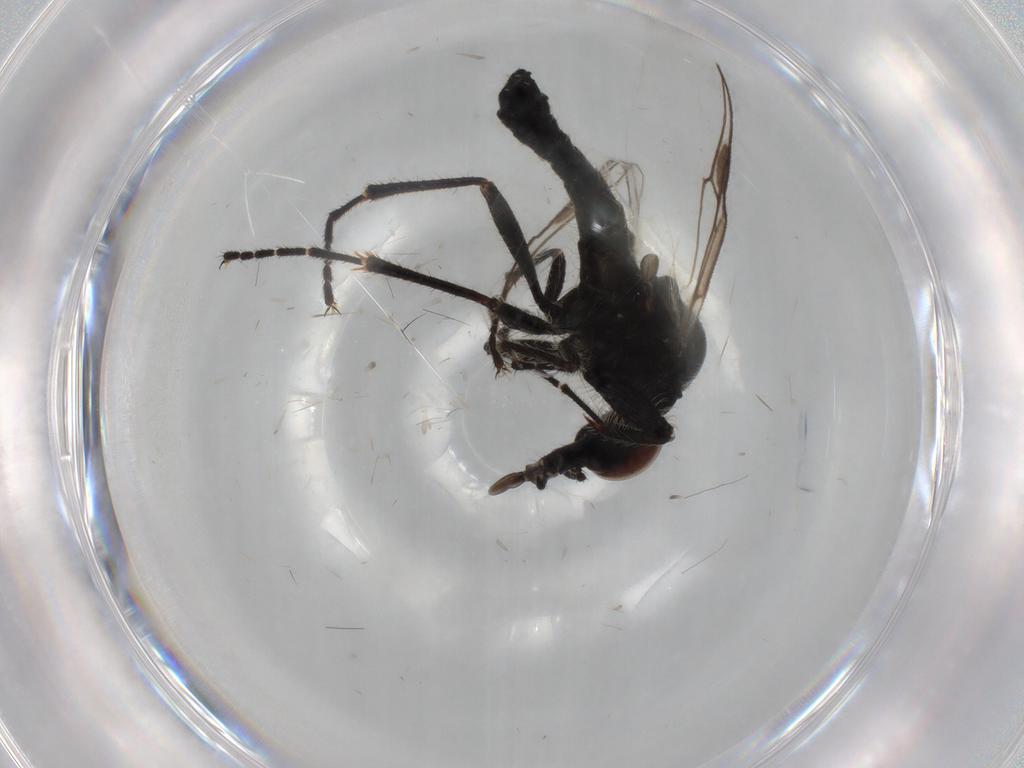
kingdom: Animalia
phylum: Arthropoda
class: Insecta
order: Diptera
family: Bibionidae
